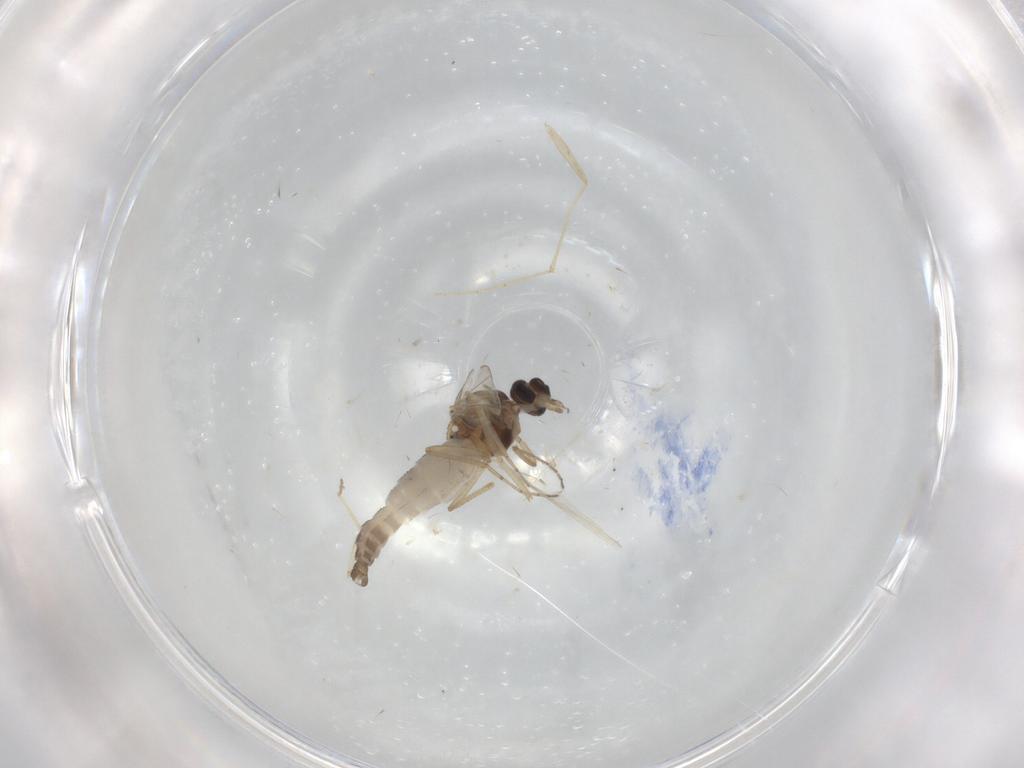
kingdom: Animalia
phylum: Arthropoda
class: Insecta
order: Diptera
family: Ceratopogonidae
